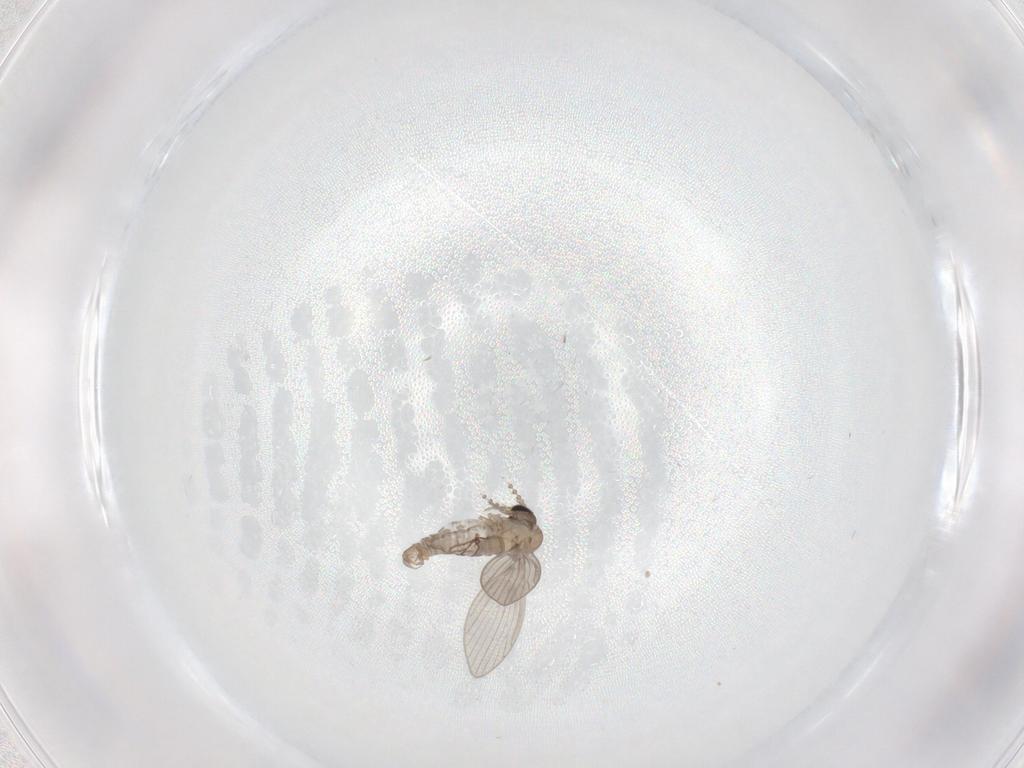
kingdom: Animalia
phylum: Arthropoda
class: Insecta
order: Diptera
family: Psychodidae
